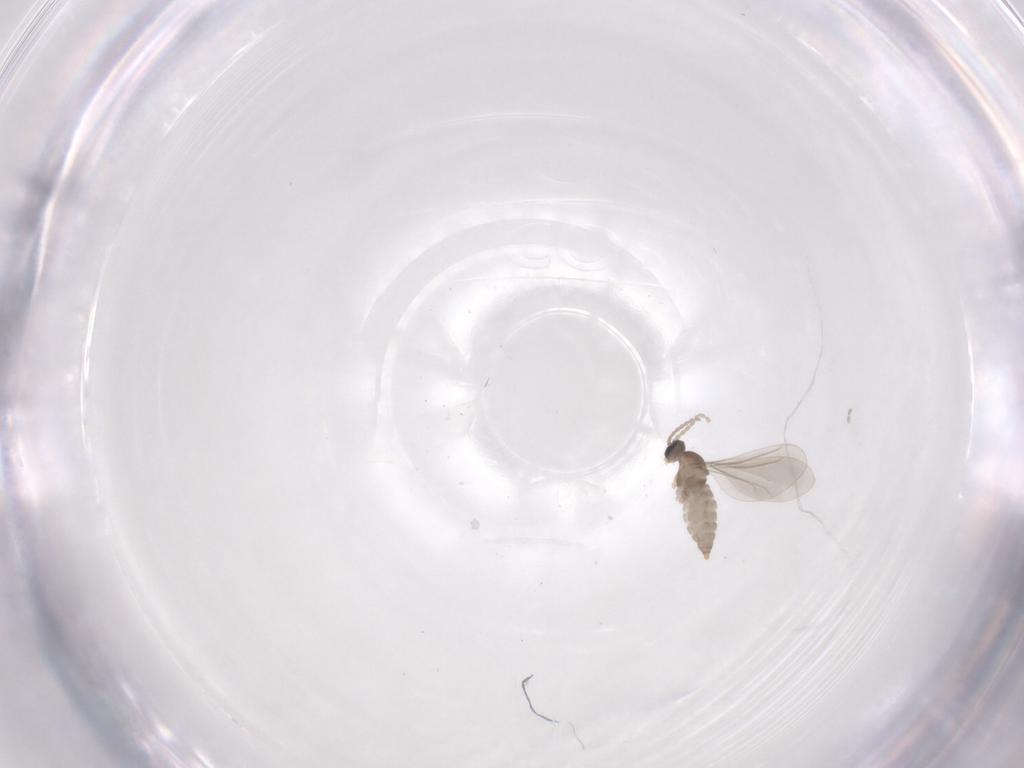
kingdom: Animalia
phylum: Arthropoda
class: Insecta
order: Diptera
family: Cecidomyiidae
